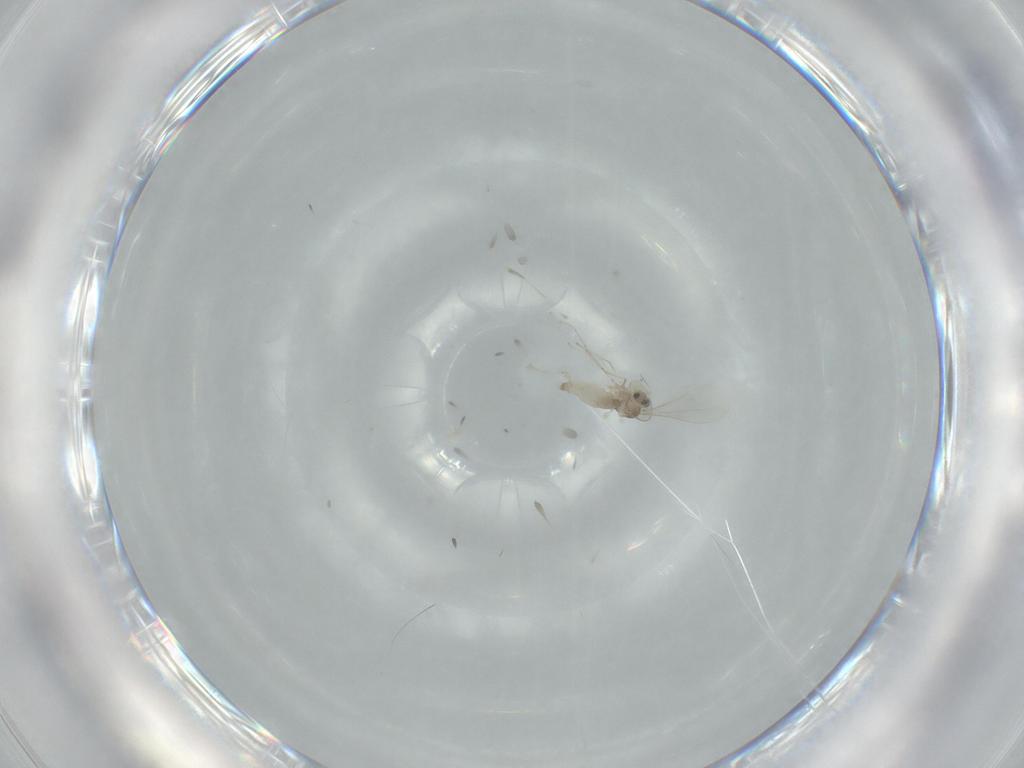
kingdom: Animalia
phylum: Arthropoda
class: Insecta
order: Diptera
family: Cecidomyiidae
